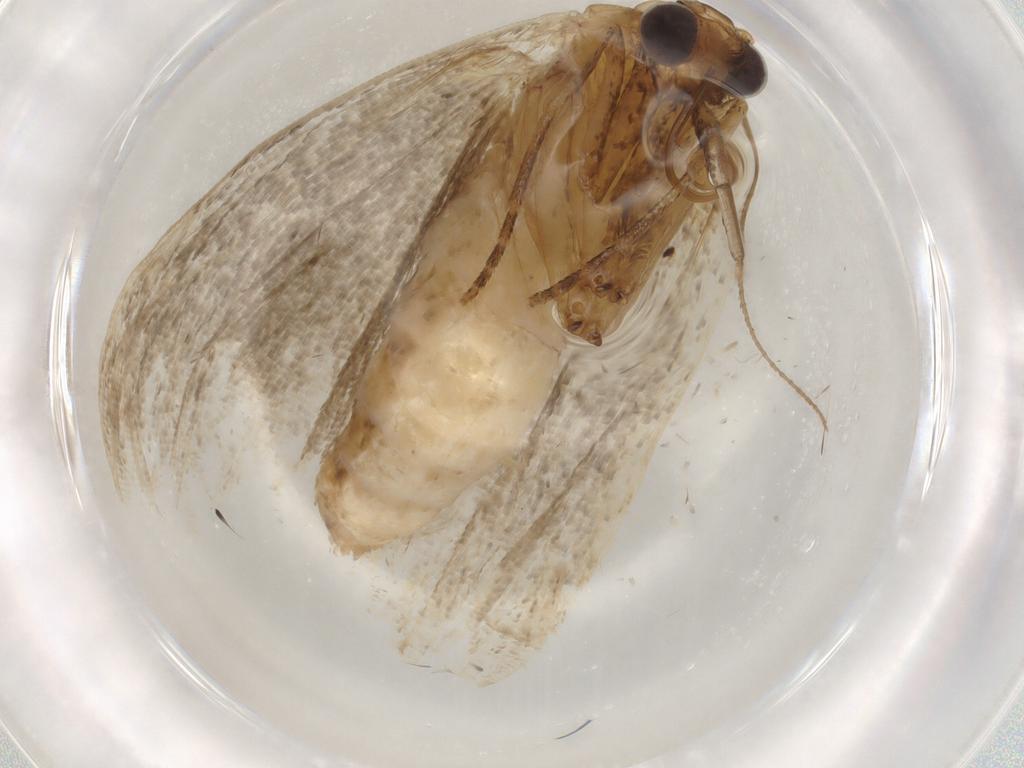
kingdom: Animalia
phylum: Arthropoda
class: Insecta
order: Lepidoptera
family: Erebidae
